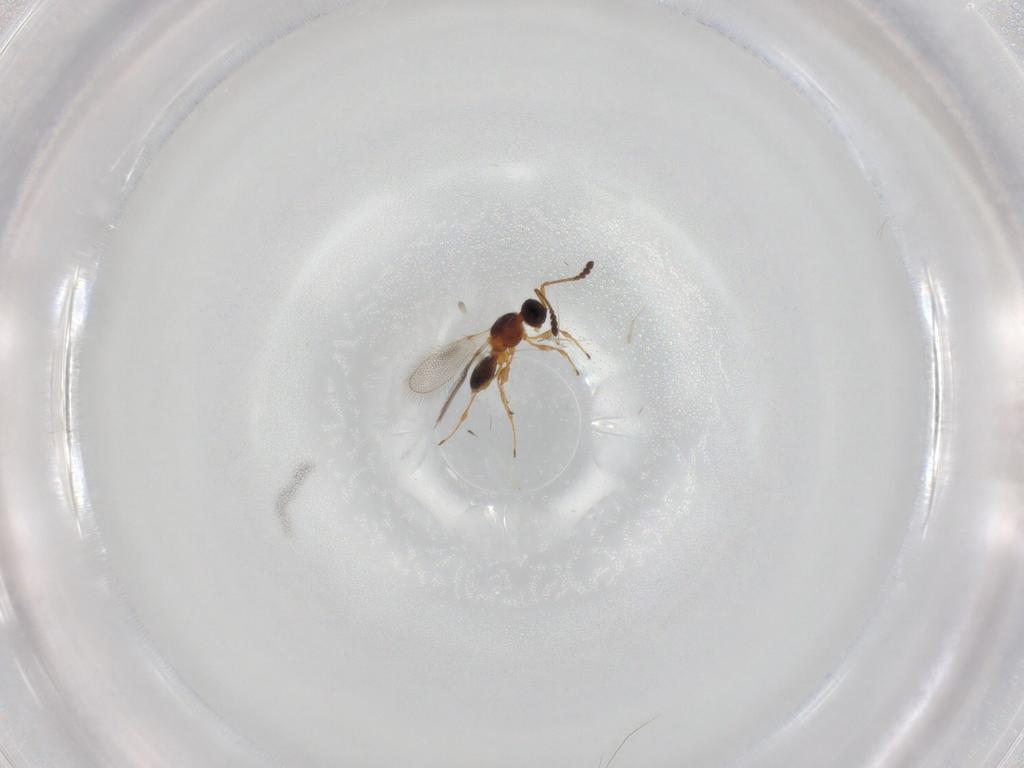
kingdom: Animalia
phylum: Arthropoda
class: Insecta
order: Hymenoptera
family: Diapriidae
